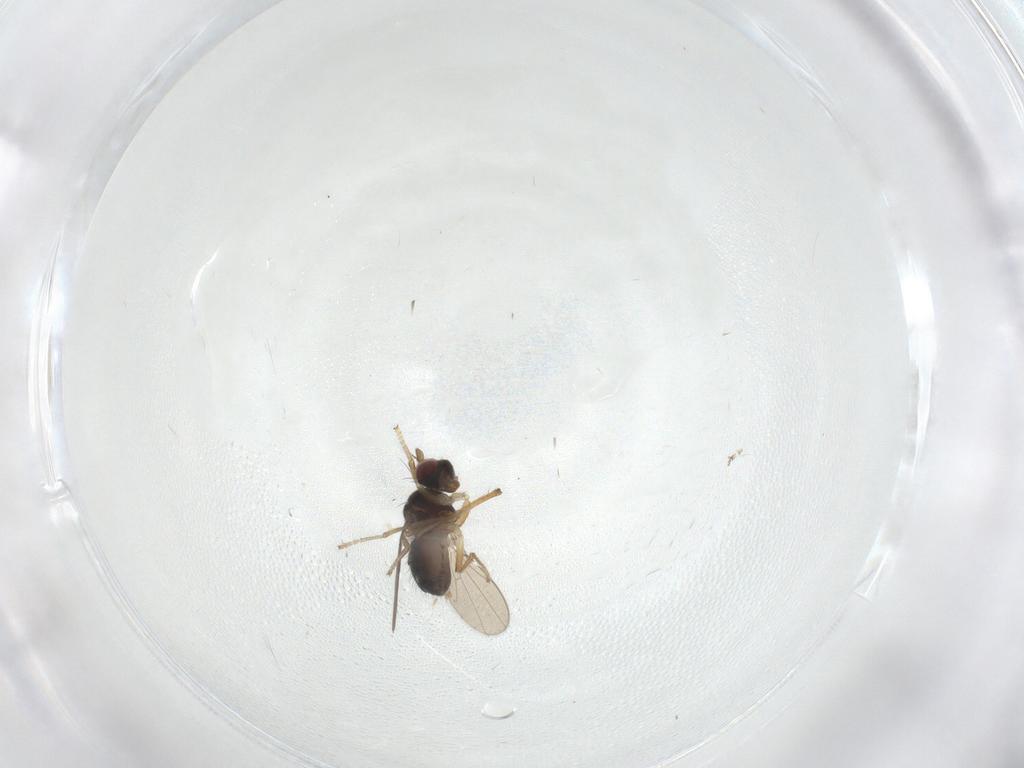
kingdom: Animalia
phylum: Arthropoda
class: Insecta
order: Diptera
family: Ephydridae
